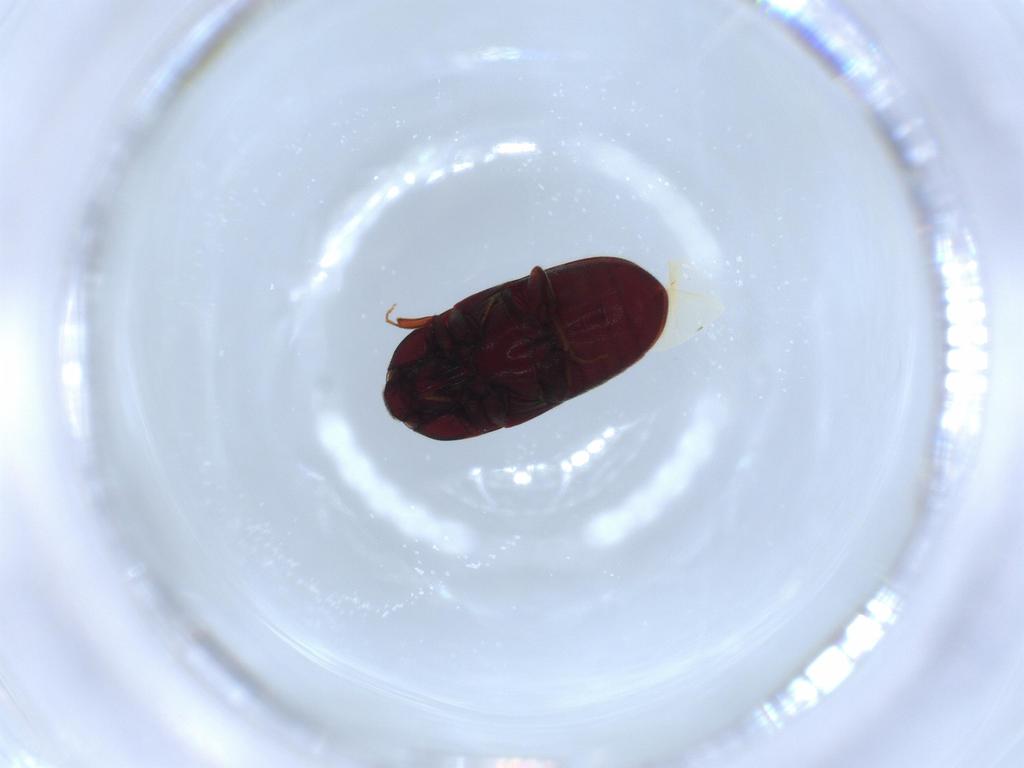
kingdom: Animalia
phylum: Arthropoda
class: Insecta
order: Coleoptera
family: Throscidae
